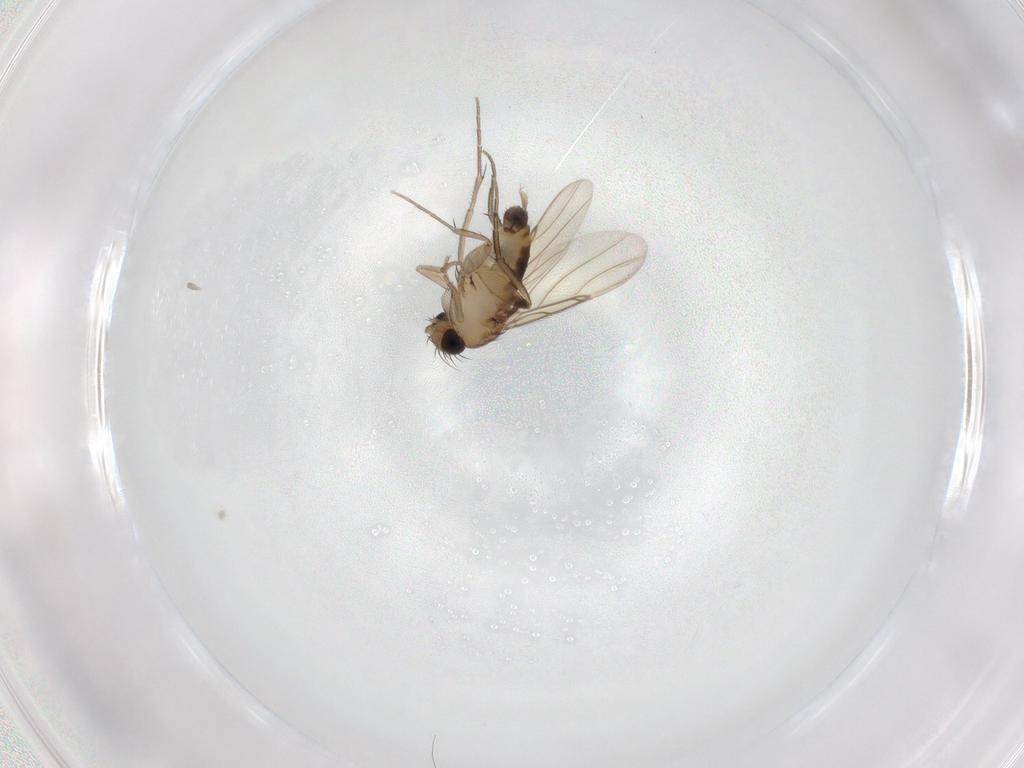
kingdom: Animalia
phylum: Arthropoda
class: Insecta
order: Diptera
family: Phoridae
